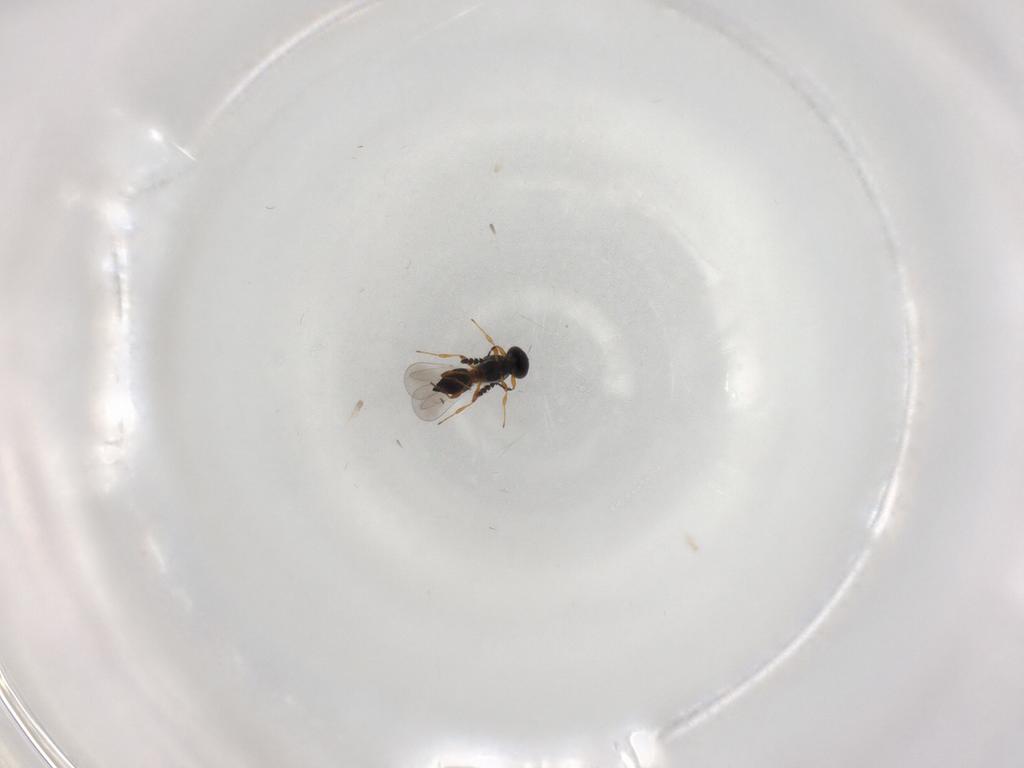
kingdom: Animalia
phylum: Arthropoda
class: Insecta
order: Hymenoptera
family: Platygastridae
